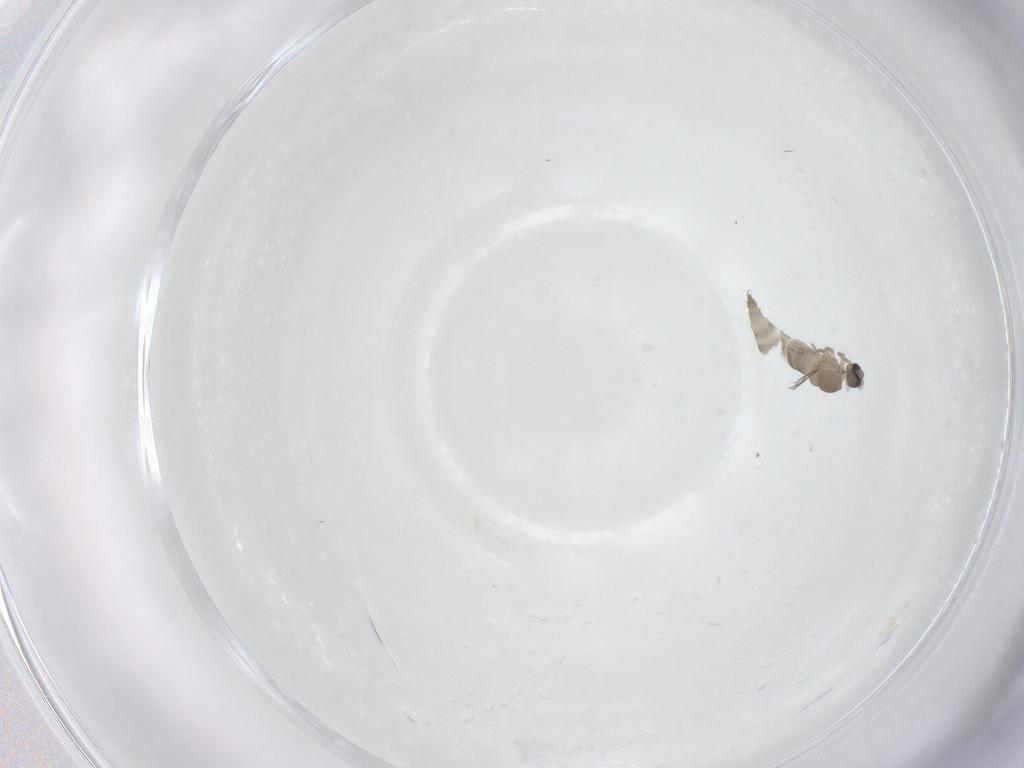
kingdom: Animalia
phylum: Arthropoda
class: Insecta
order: Diptera
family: Cecidomyiidae
